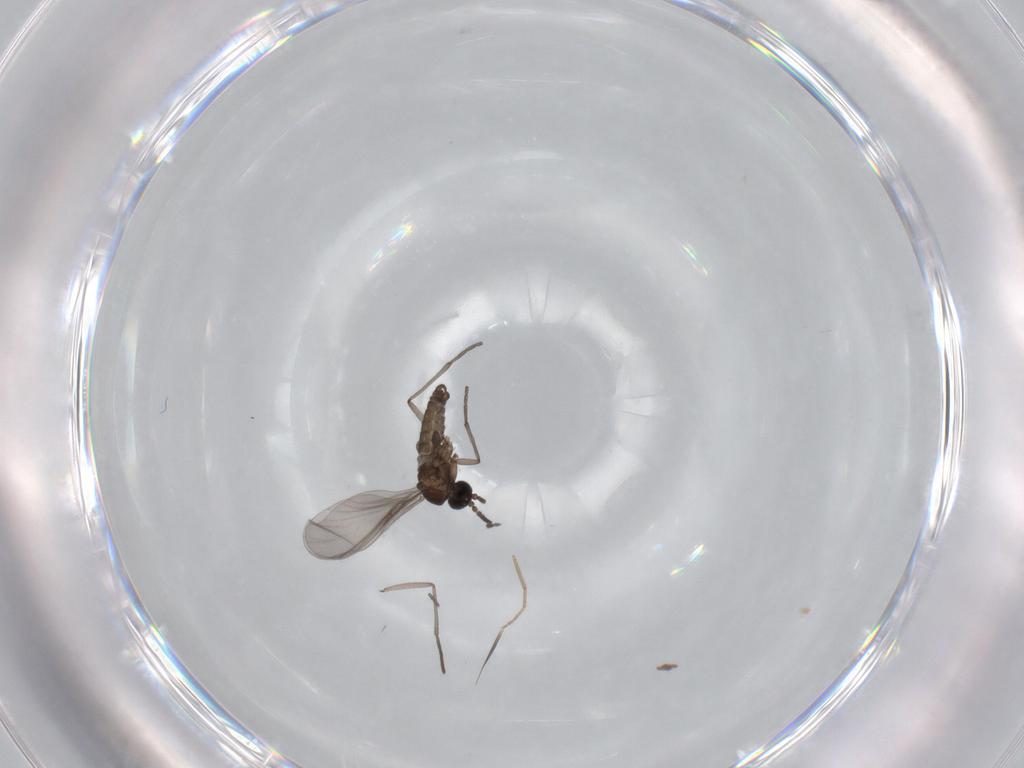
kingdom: Animalia
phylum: Arthropoda
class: Insecta
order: Diptera
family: Sciaridae
